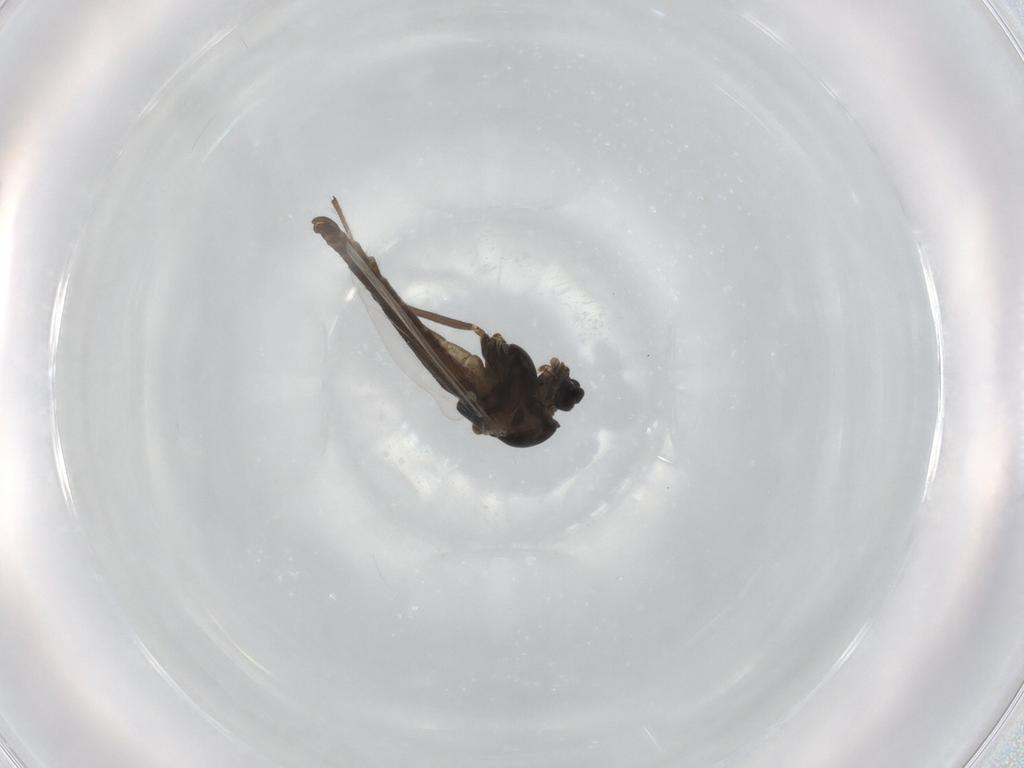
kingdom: Animalia
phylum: Arthropoda
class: Insecta
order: Diptera
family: Chironomidae
